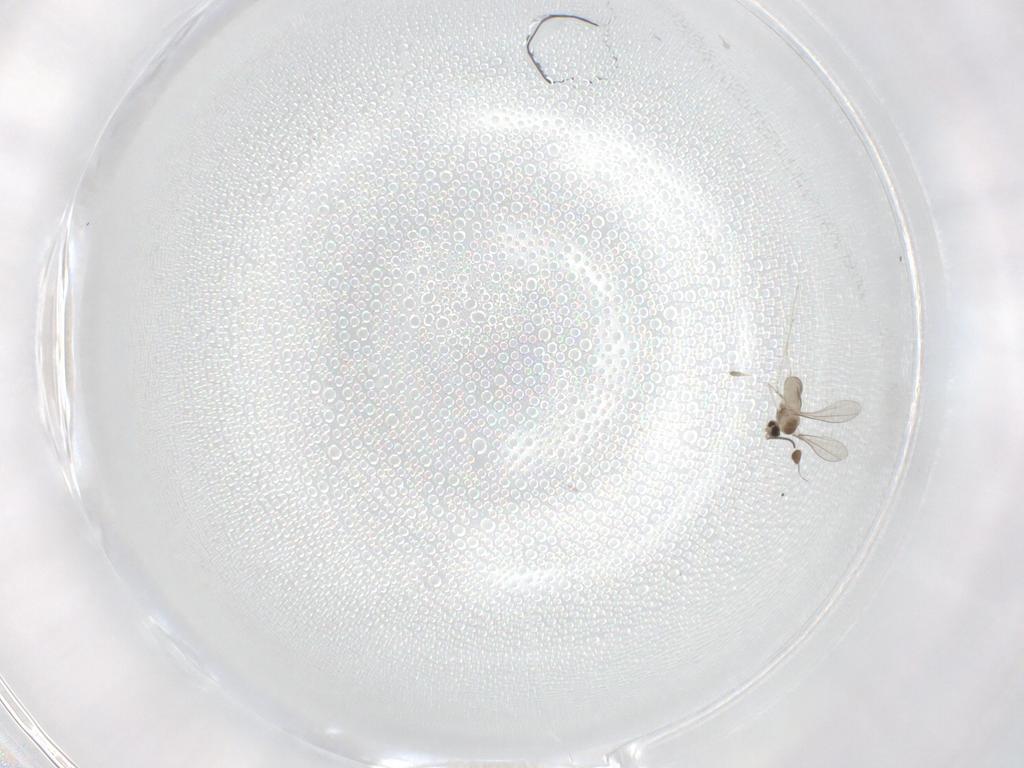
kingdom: Animalia
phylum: Arthropoda
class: Insecta
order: Diptera
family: Cecidomyiidae
